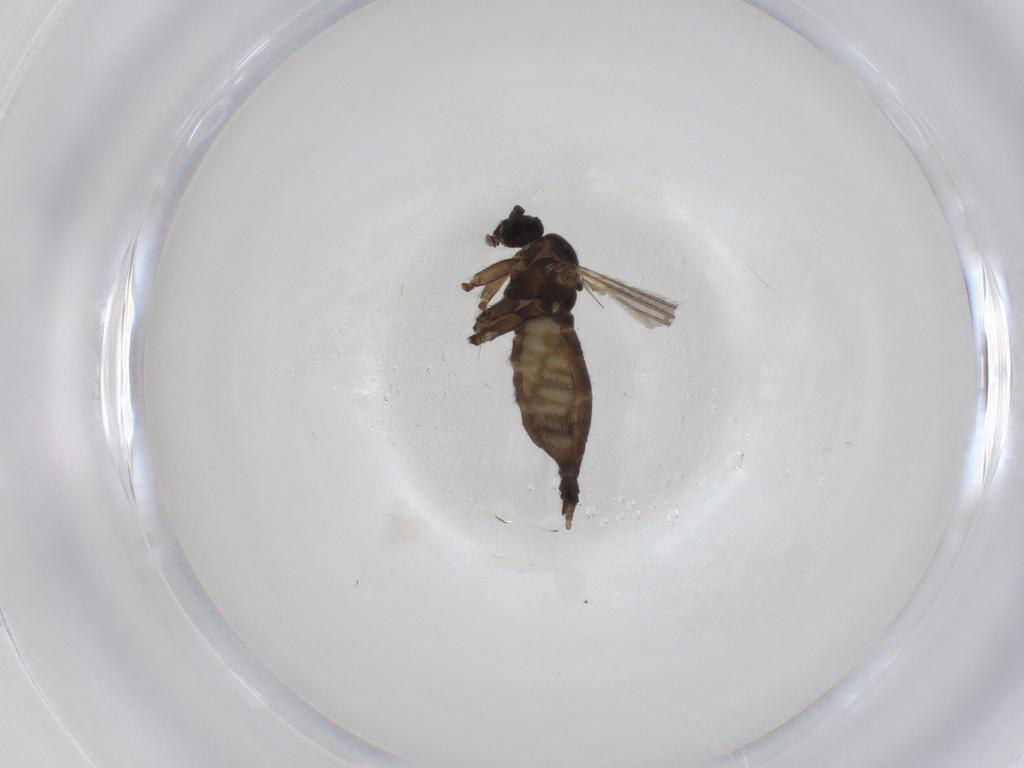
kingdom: Animalia
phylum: Arthropoda
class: Insecta
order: Diptera
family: Sciaridae
